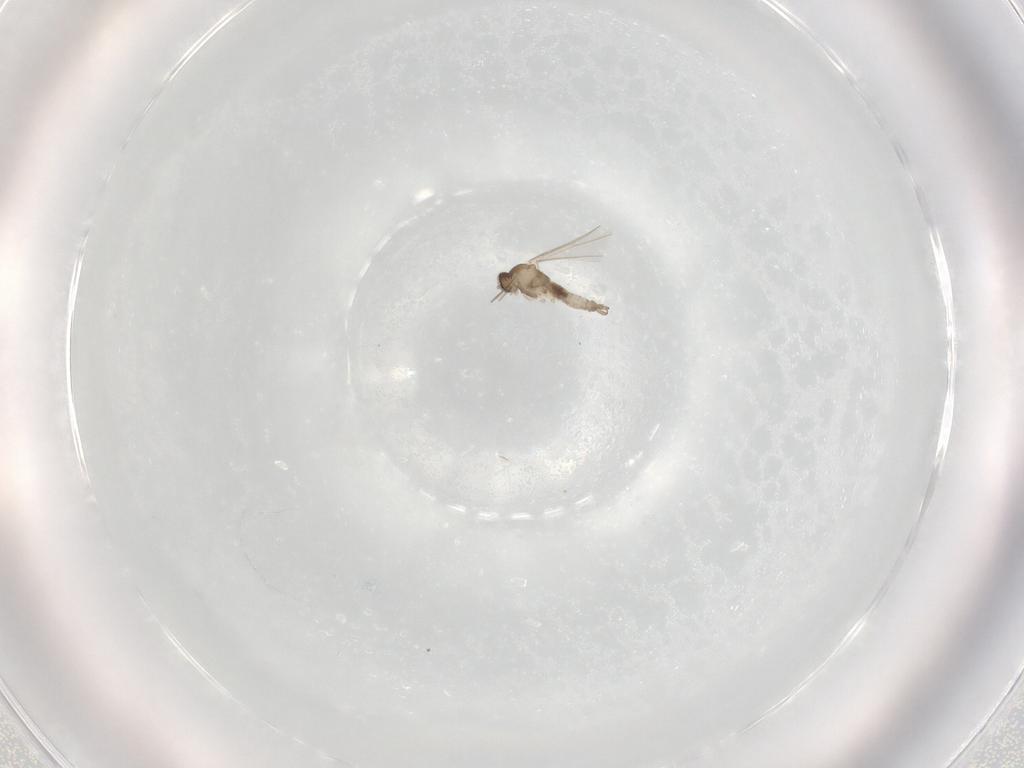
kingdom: Animalia
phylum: Arthropoda
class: Insecta
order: Diptera
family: Cecidomyiidae
